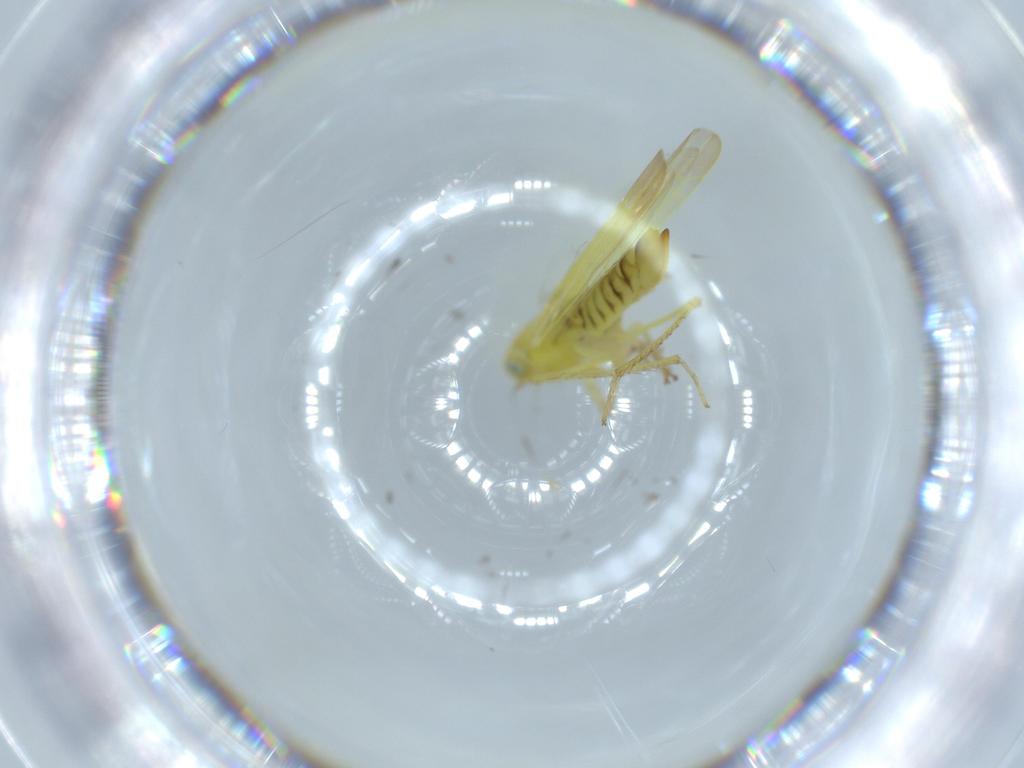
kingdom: Animalia
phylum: Arthropoda
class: Insecta
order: Hemiptera
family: Cicadellidae
